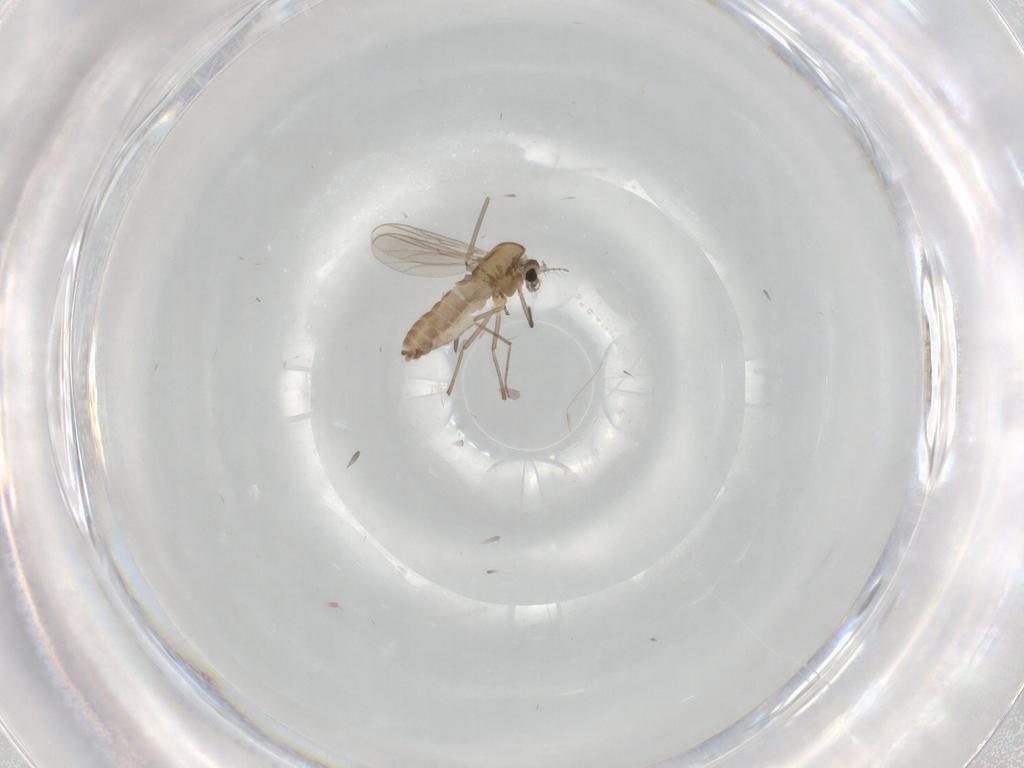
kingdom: Animalia
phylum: Arthropoda
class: Insecta
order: Diptera
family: Chironomidae
